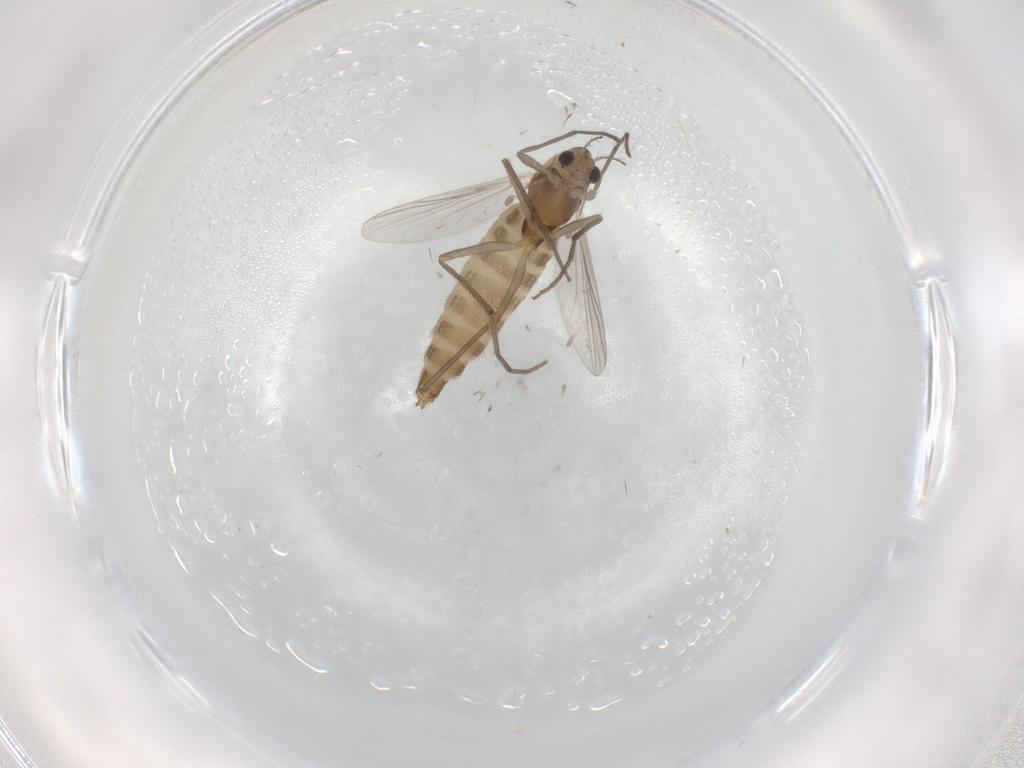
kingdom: Animalia
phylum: Arthropoda
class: Insecta
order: Diptera
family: Chironomidae
